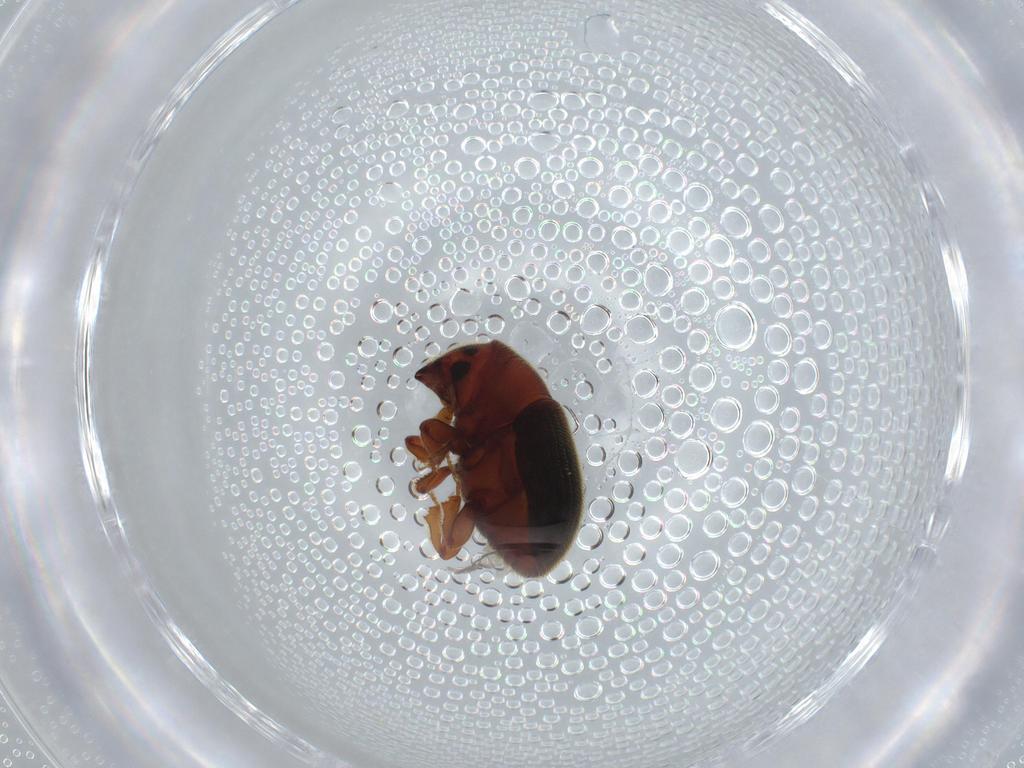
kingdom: Animalia
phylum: Arthropoda
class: Insecta
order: Coleoptera
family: Curculionidae
